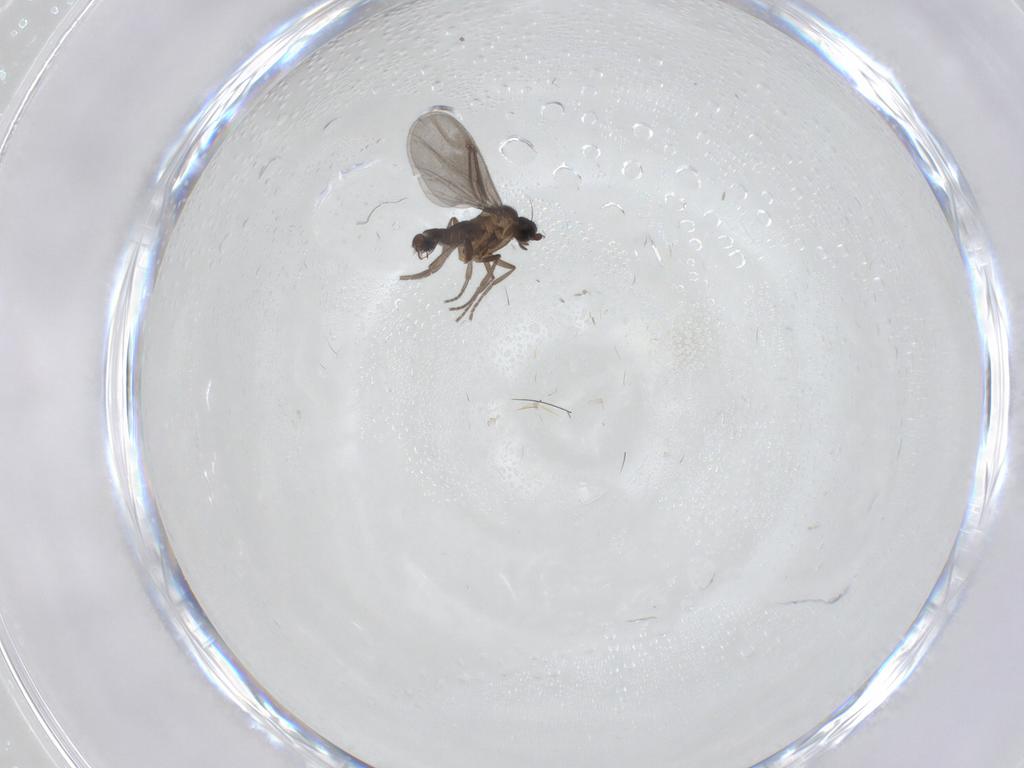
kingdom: Animalia
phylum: Arthropoda
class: Insecta
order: Diptera
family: Phoridae
